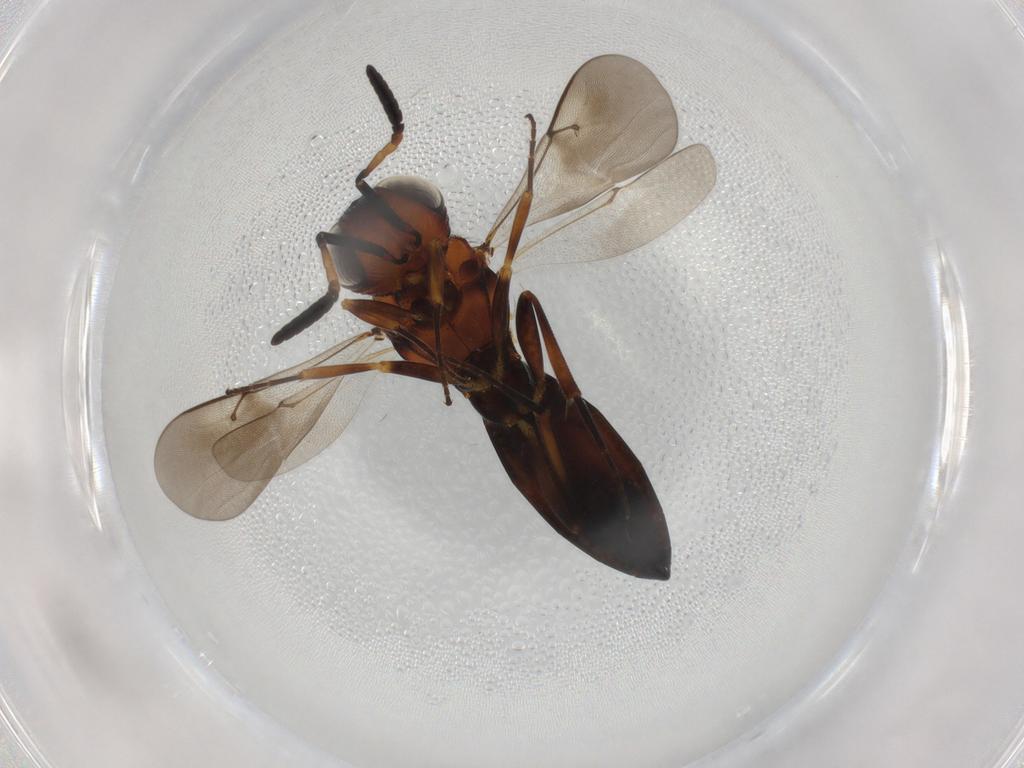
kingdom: Animalia
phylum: Arthropoda
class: Insecta
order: Hymenoptera
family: Scelionidae
